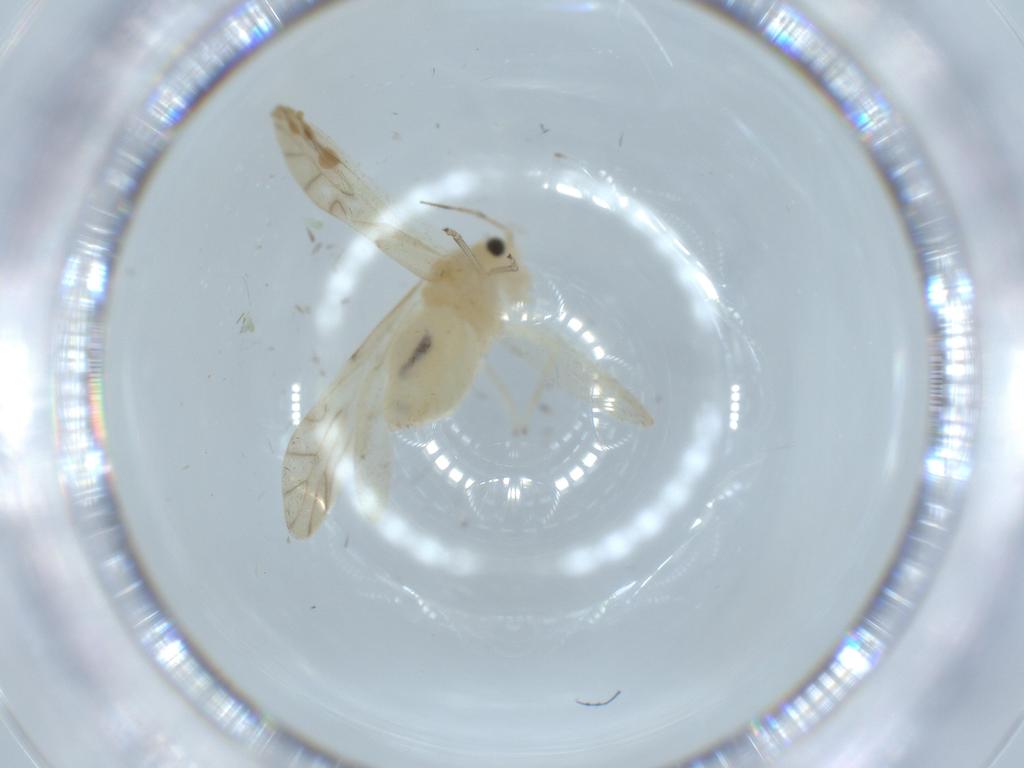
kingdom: Animalia
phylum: Arthropoda
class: Insecta
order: Psocodea
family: Caeciliusidae
